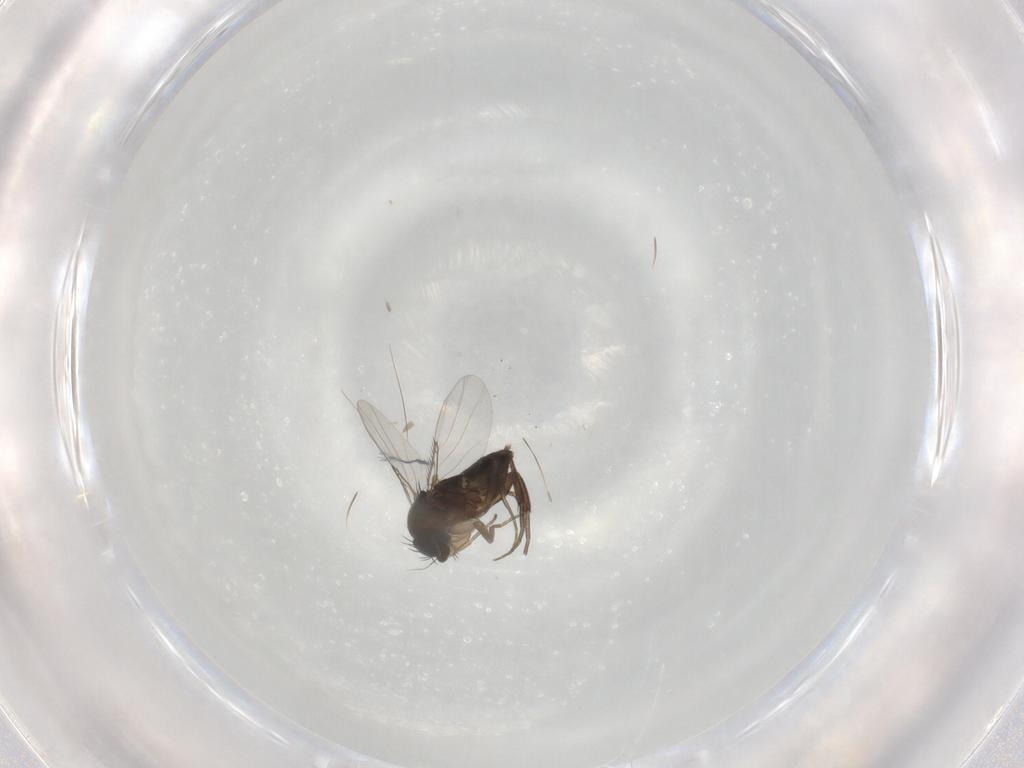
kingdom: Animalia
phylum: Arthropoda
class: Insecta
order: Diptera
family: Phoridae
